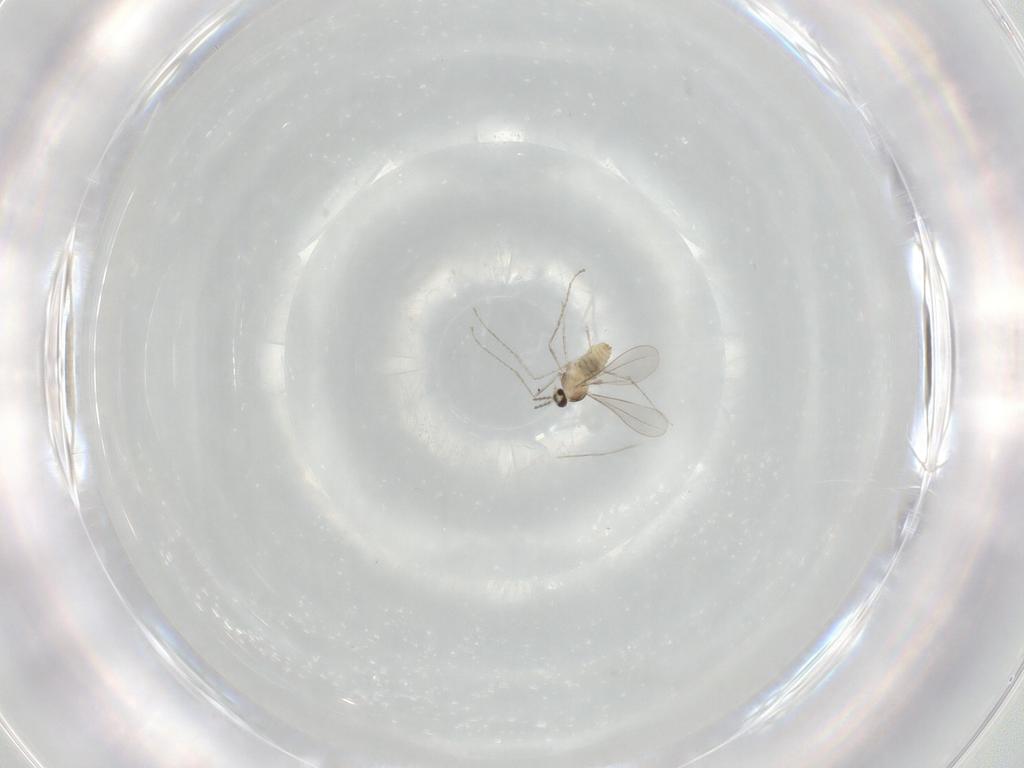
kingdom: Animalia
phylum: Arthropoda
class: Insecta
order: Diptera
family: Cecidomyiidae
